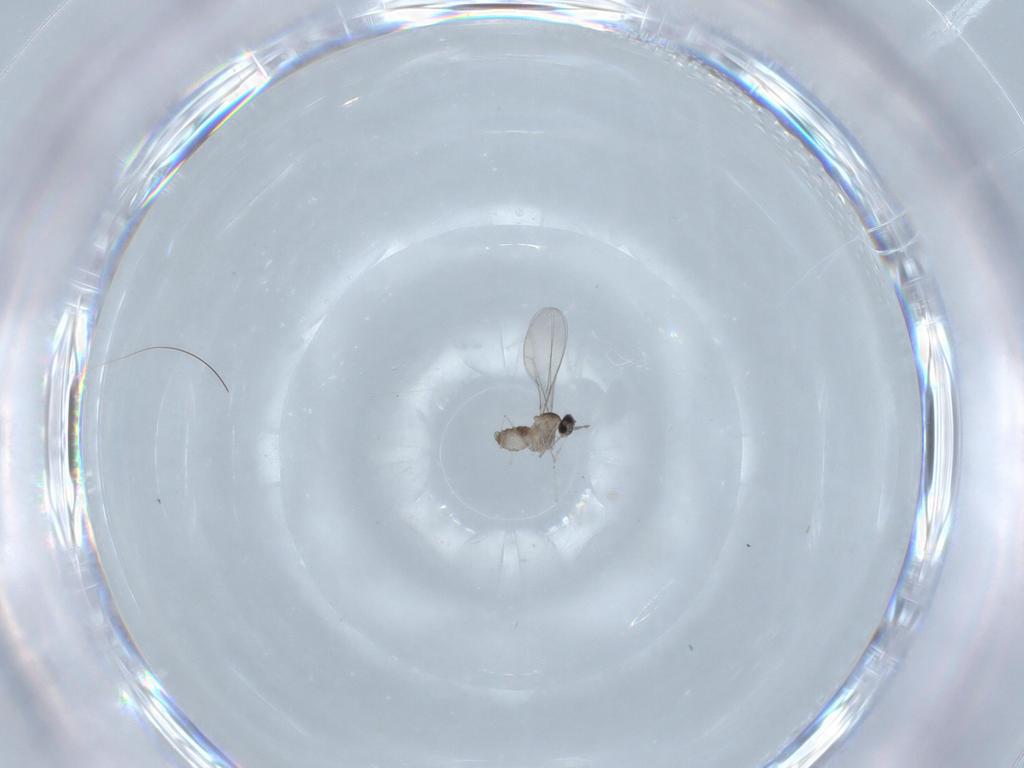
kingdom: Animalia
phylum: Arthropoda
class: Insecta
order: Diptera
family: Cecidomyiidae
